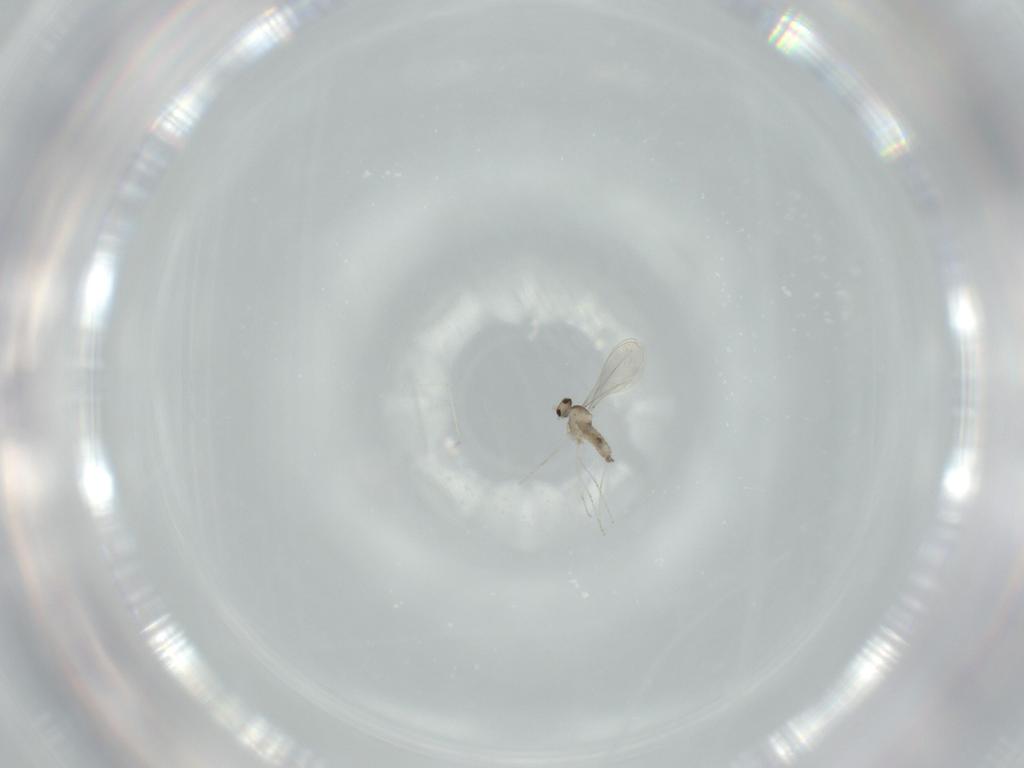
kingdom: Animalia
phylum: Arthropoda
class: Insecta
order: Diptera
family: Cecidomyiidae
